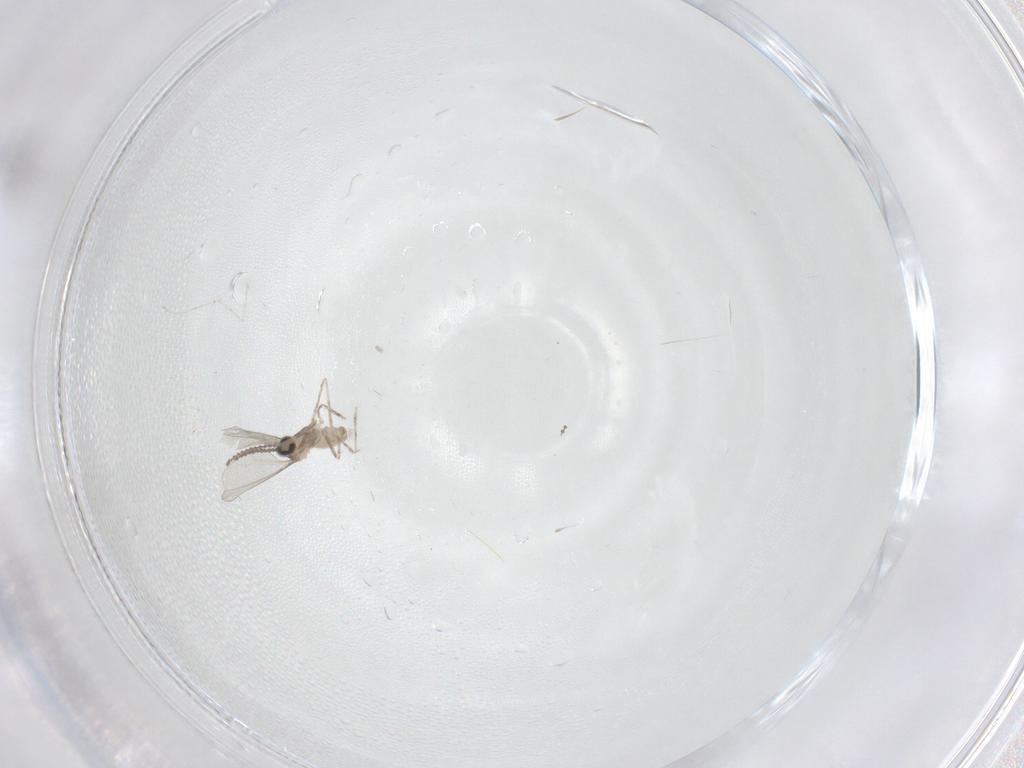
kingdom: Animalia
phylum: Arthropoda
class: Insecta
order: Diptera
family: Cecidomyiidae
